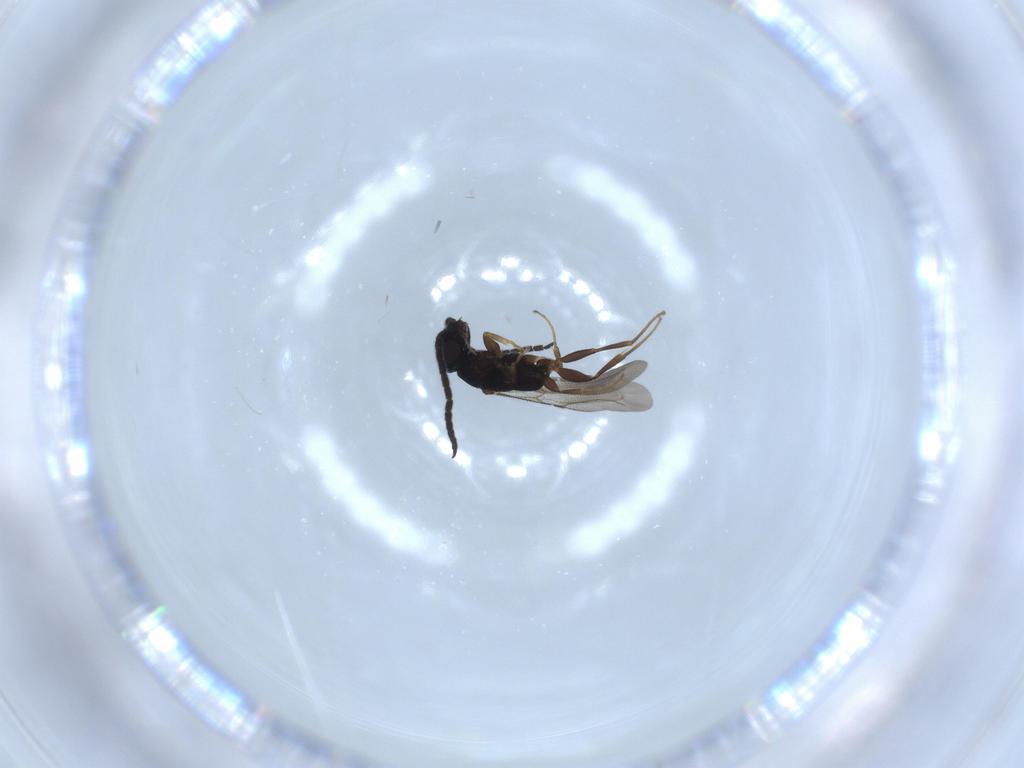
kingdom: Animalia
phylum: Arthropoda
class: Insecta
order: Hymenoptera
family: Bethylidae
